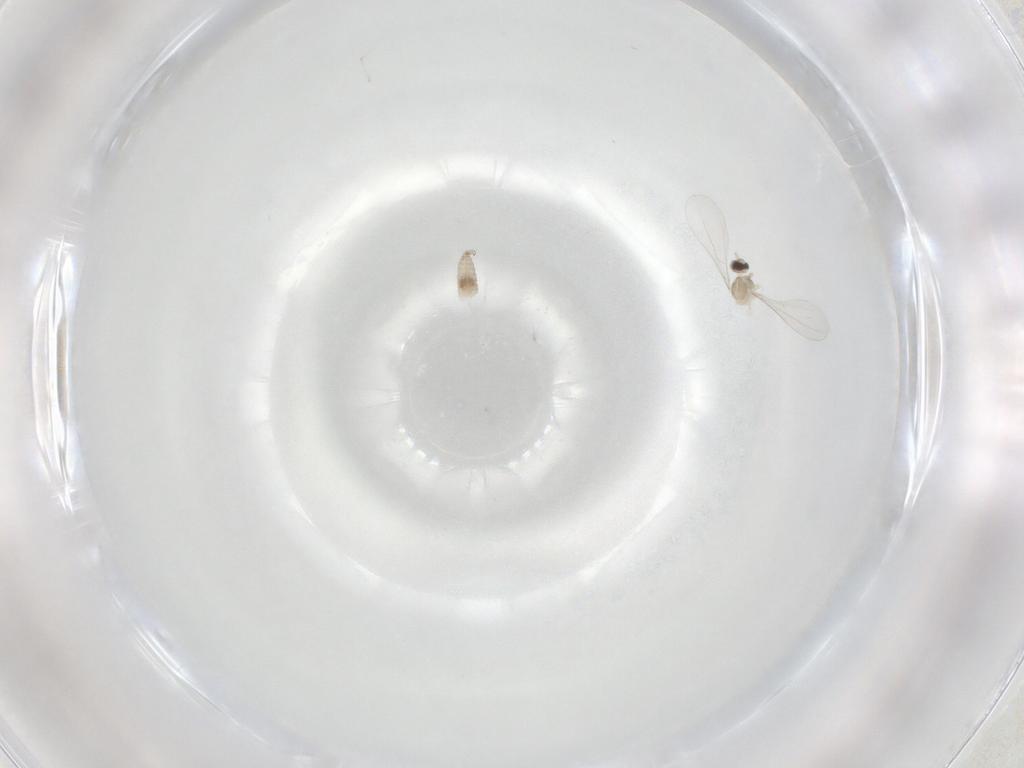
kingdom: Animalia
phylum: Arthropoda
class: Insecta
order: Diptera
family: Cecidomyiidae
